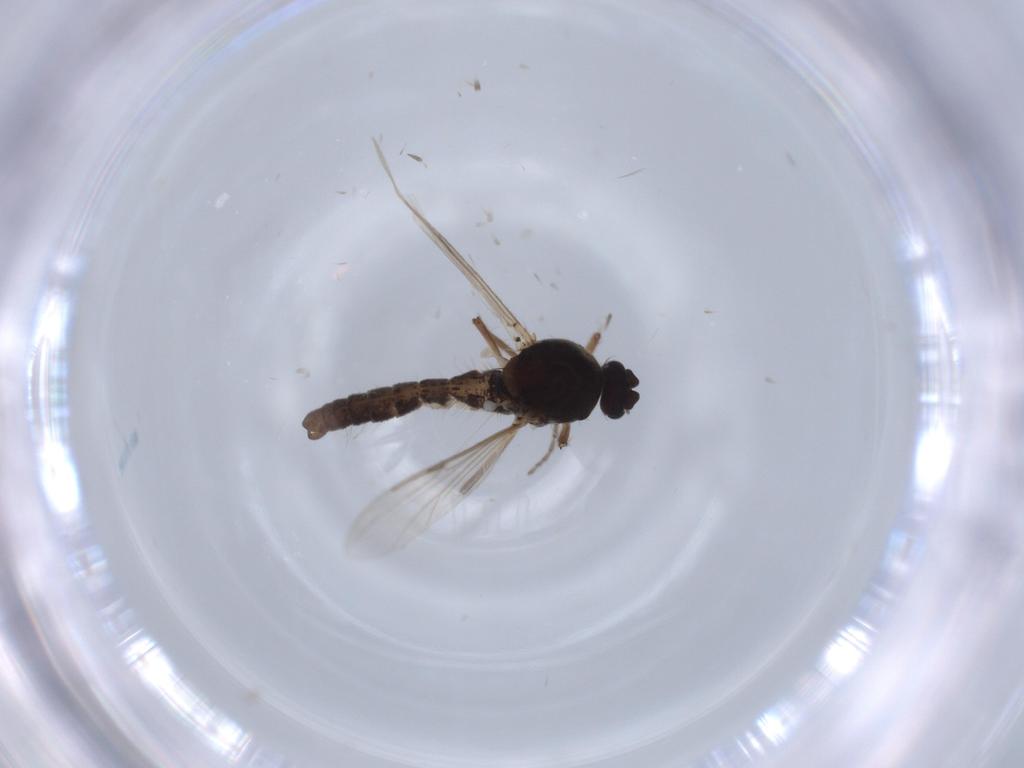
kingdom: Animalia
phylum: Arthropoda
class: Insecta
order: Diptera
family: Ceratopogonidae
